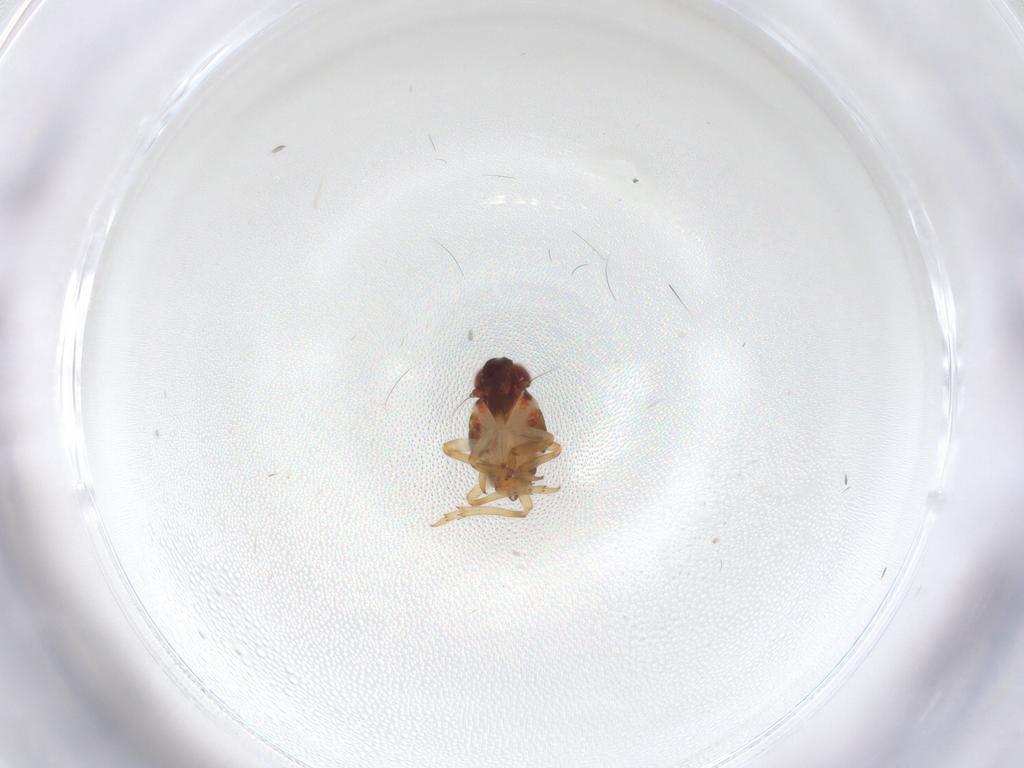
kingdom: Animalia
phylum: Arthropoda
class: Insecta
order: Hemiptera
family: Issidae
